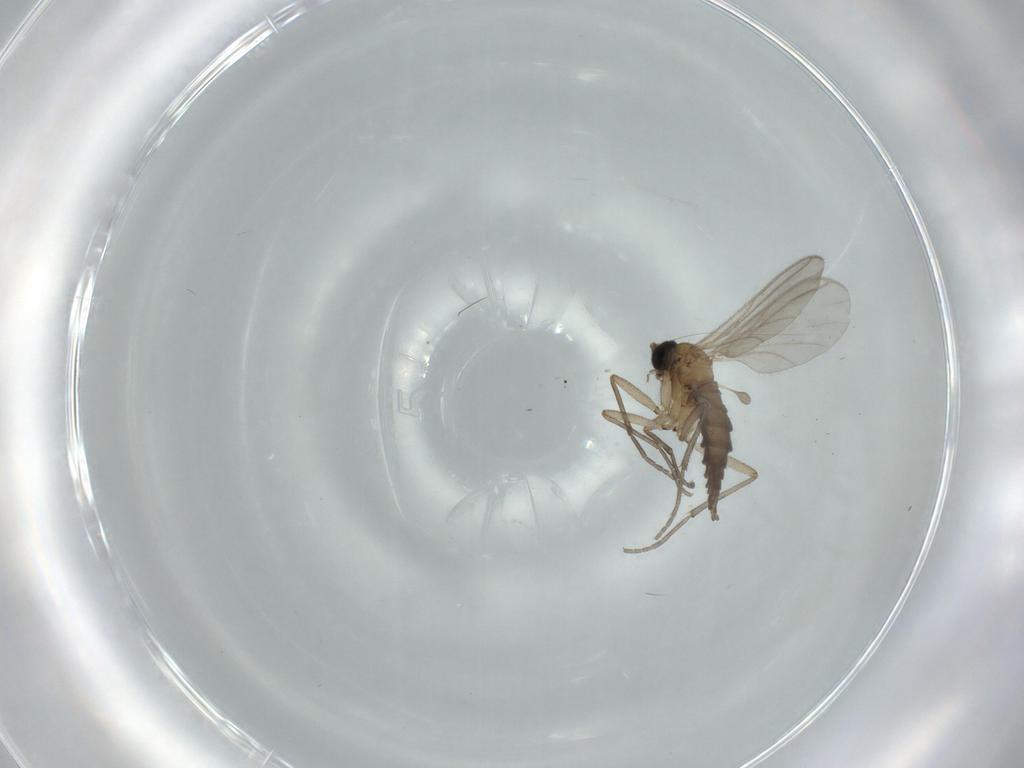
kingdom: Animalia
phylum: Arthropoda
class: Insecta
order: Diptera
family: Sciaridae
